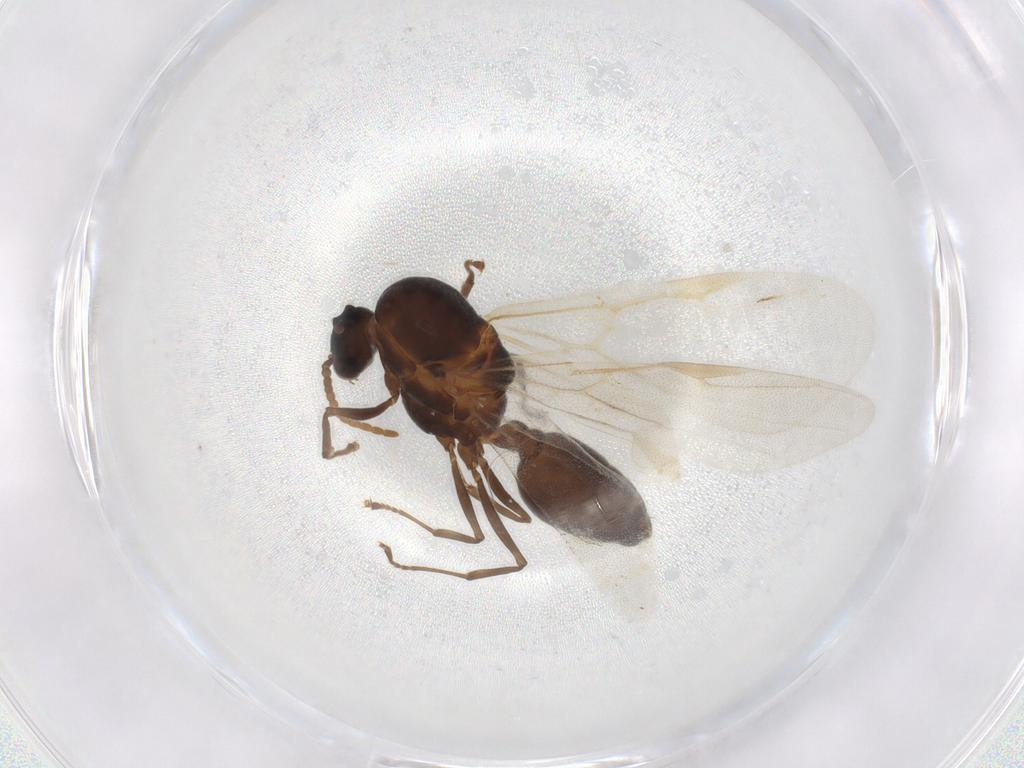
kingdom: Animalia
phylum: Arthropoda
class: Insecta
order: Hymenoptera
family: Formicidae
